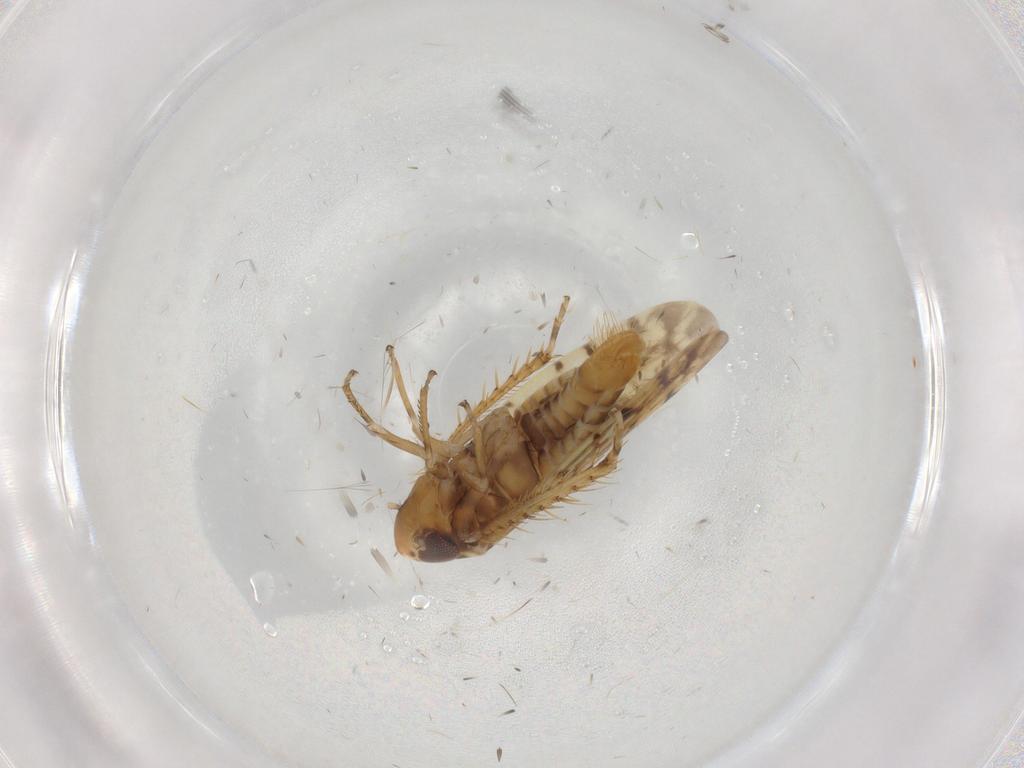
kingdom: Animalia
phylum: Arthropoda
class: Insecta
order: Hemiptera
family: Cicadellidae
